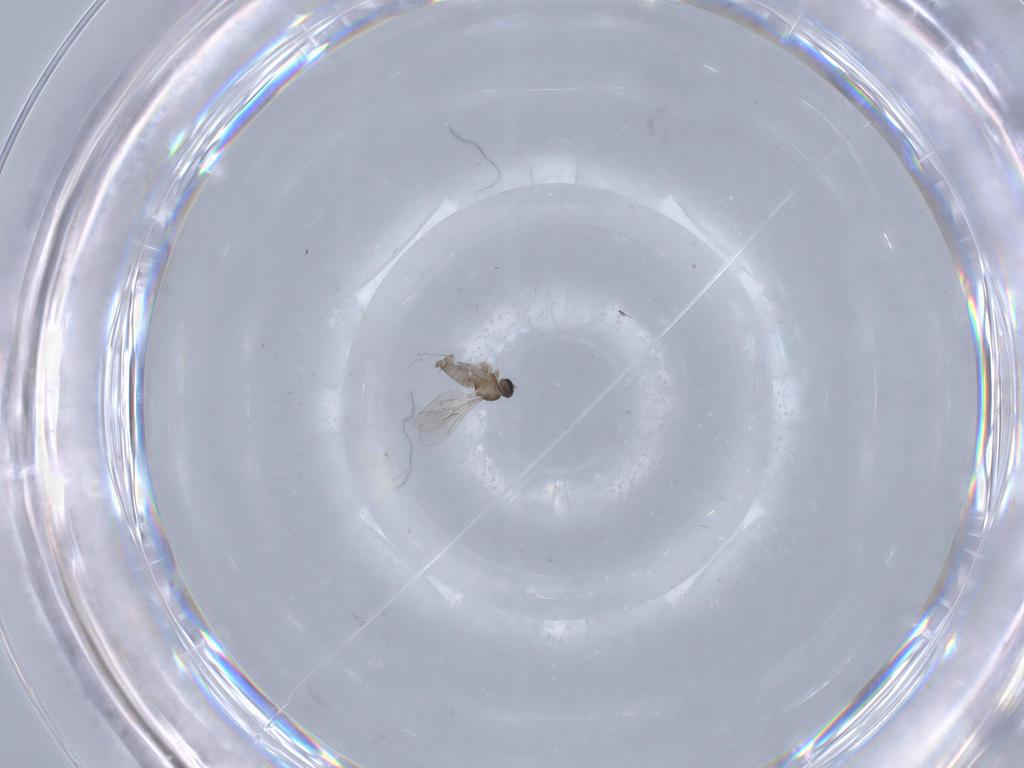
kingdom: Animalia
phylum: Arthropoda
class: Insecta
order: Diptera
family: Cecidomyiidae
